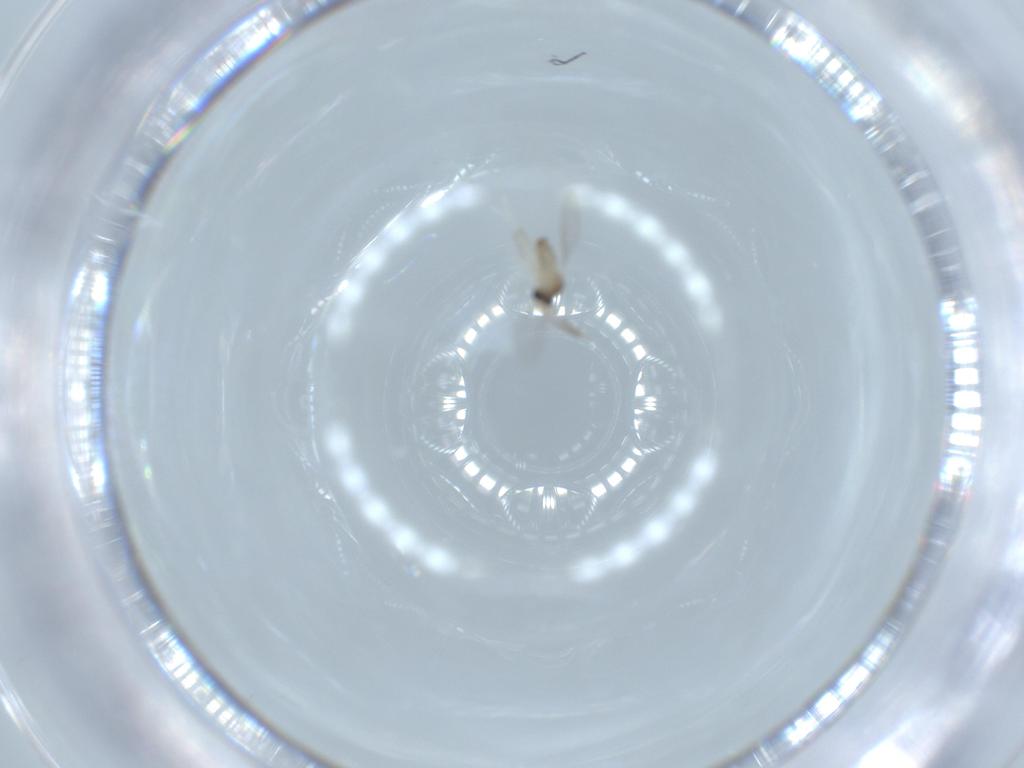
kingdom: Animalia
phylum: Arthropoda
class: Insecta
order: Diptera
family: Cecidomyiidae
